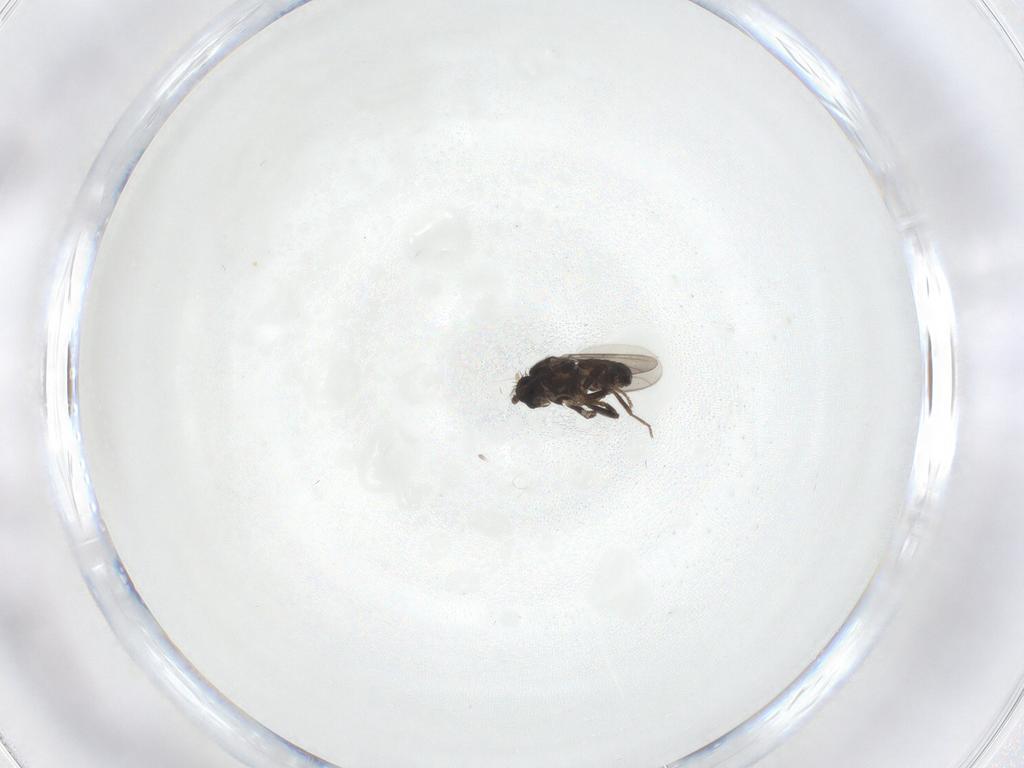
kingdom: Animalia
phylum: Arthropoda
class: Insecta
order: Diptera
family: Sphaeroceridae
